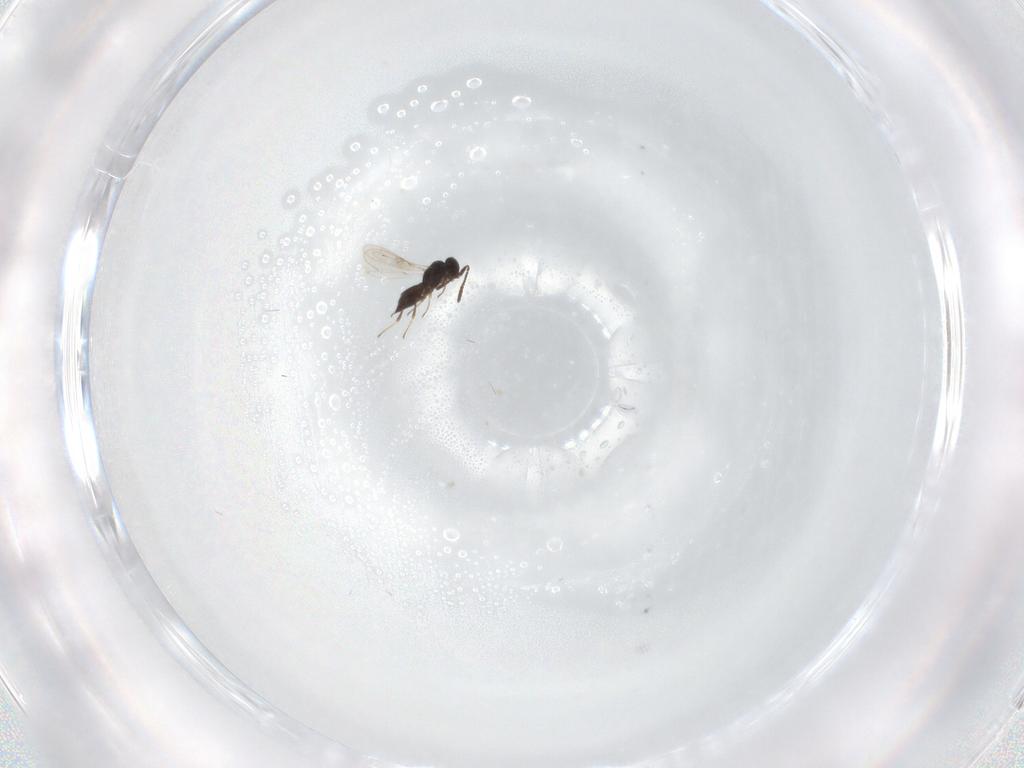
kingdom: Animalia
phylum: Arthropoda
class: Insecta
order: Hymenoptera
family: Scelionidae
